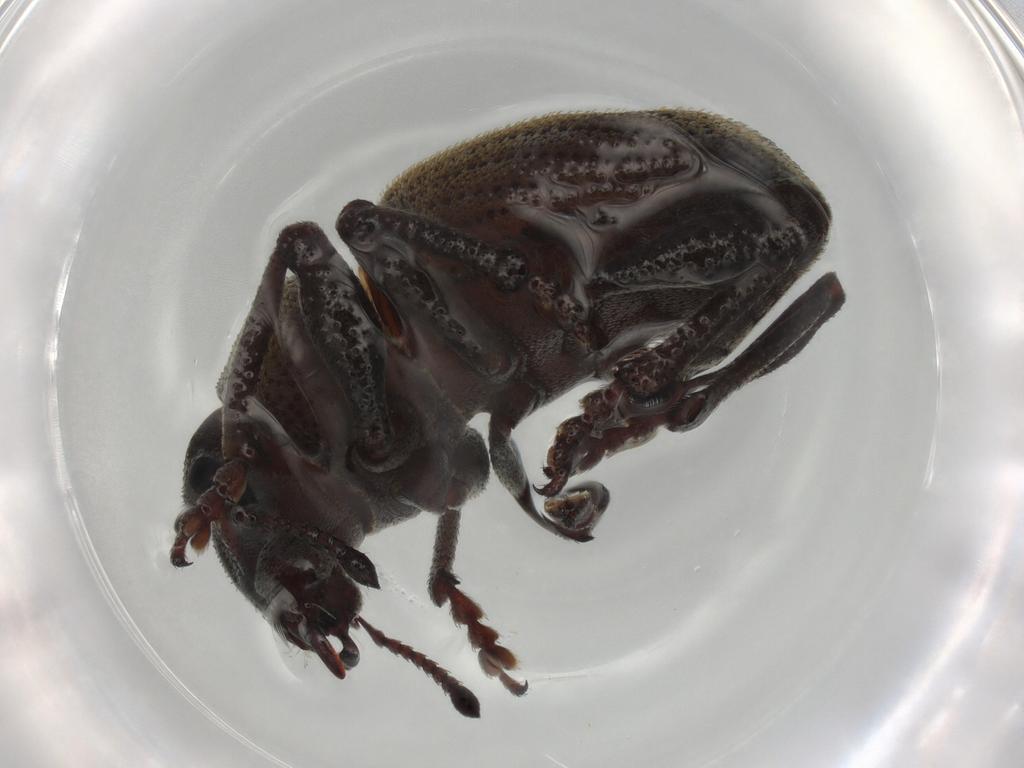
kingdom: Animalia
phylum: Arthropoda
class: Insecta
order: Coleoptera
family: Curculionidae
